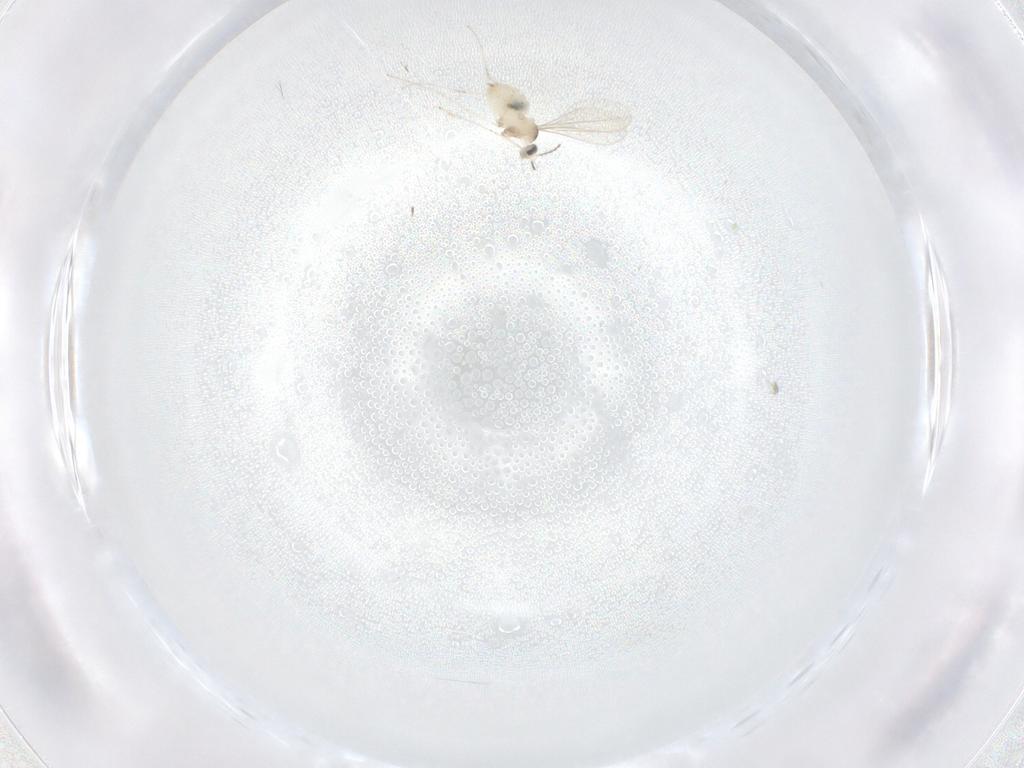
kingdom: Animalia
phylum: Arthropoda
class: Insecta
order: Diptera
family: Cecidomyiidae
